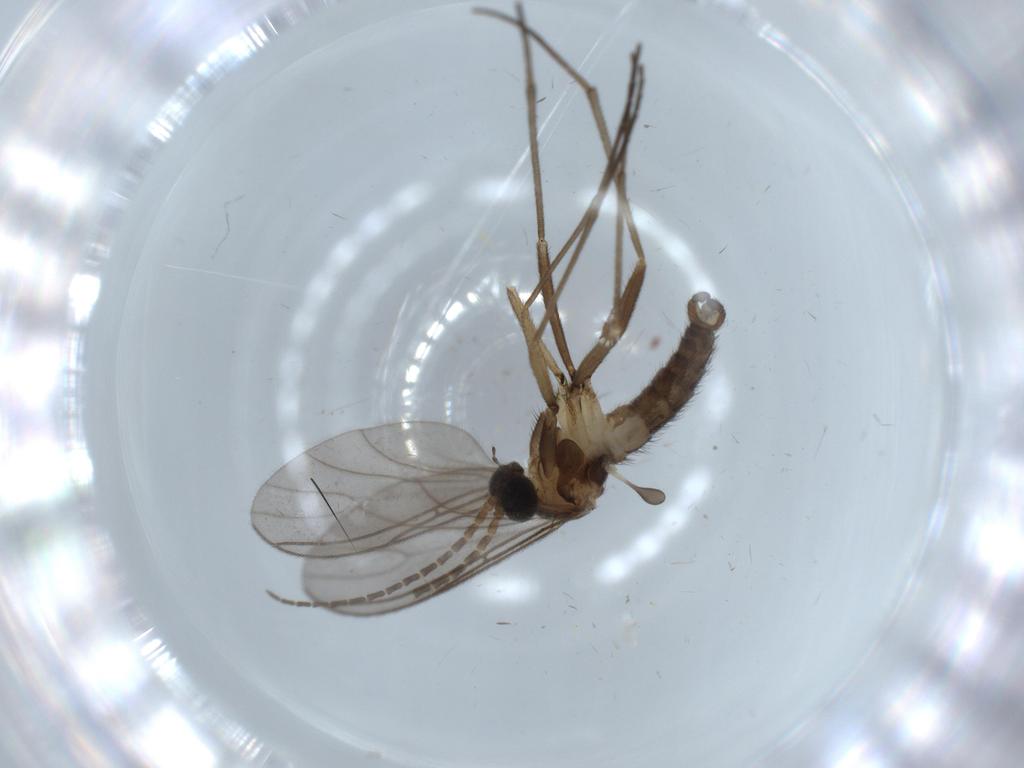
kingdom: Animalia
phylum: Arthropoda
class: Insecta
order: Diptera
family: Sciaridae
